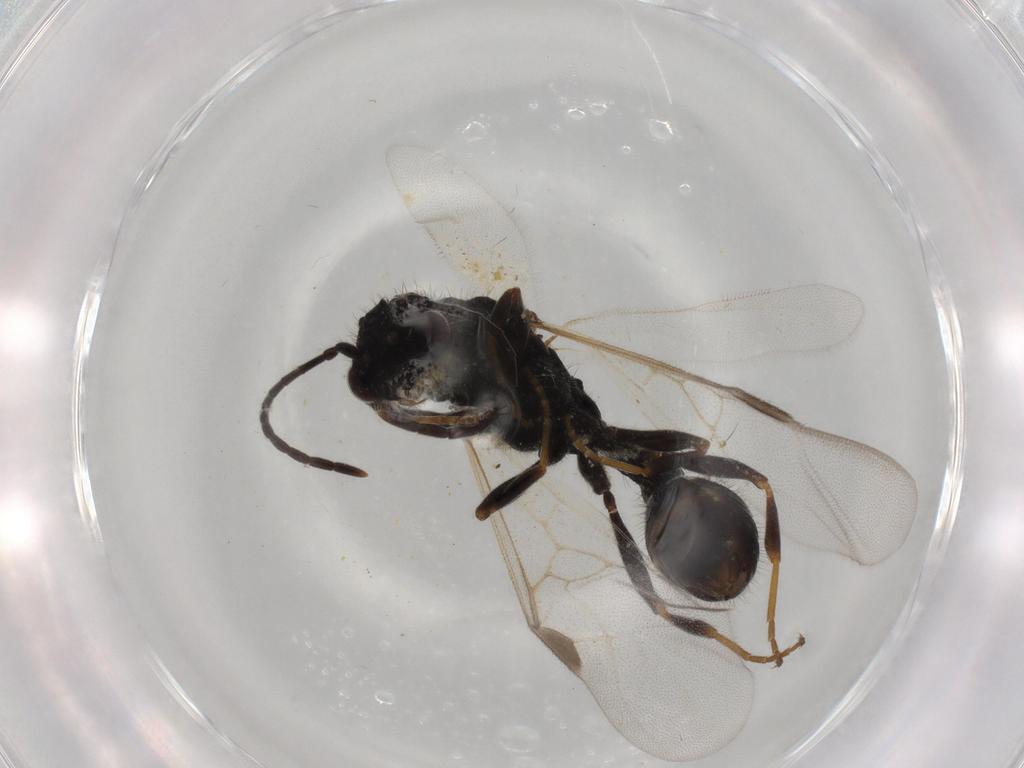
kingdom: Animalia
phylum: Arthropoda
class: Insecta
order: Hymenoptera
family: Formicidae
